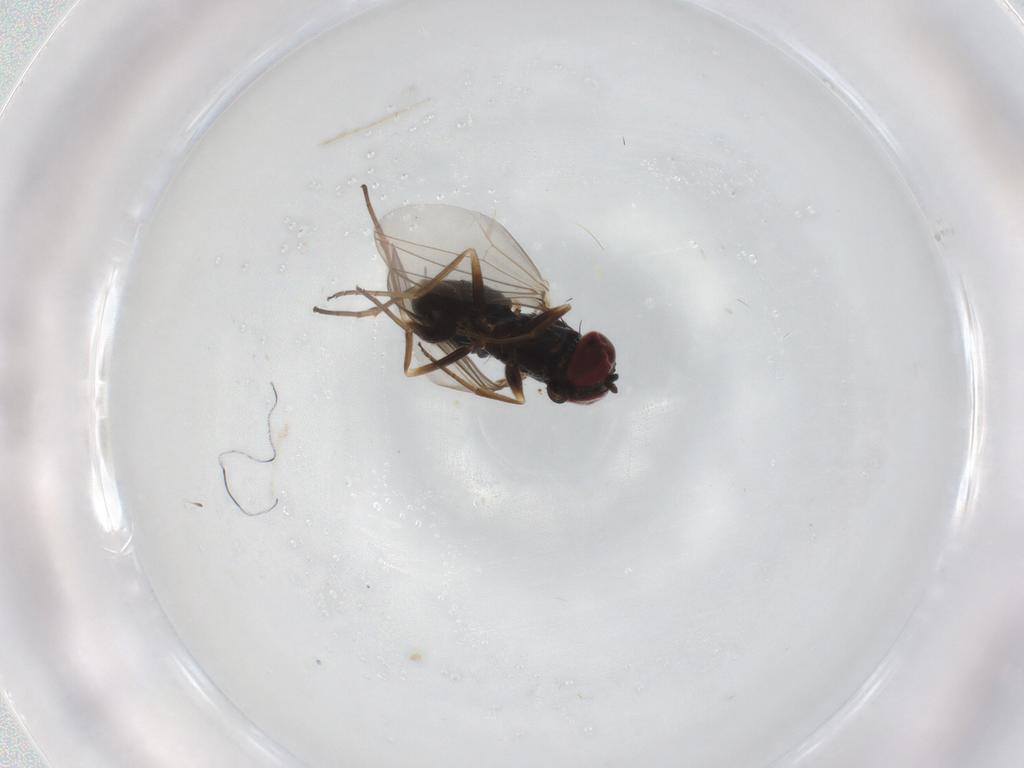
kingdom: Animalia
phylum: Arthropoda
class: Insecta
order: Diptera
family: Dolichopodidae
